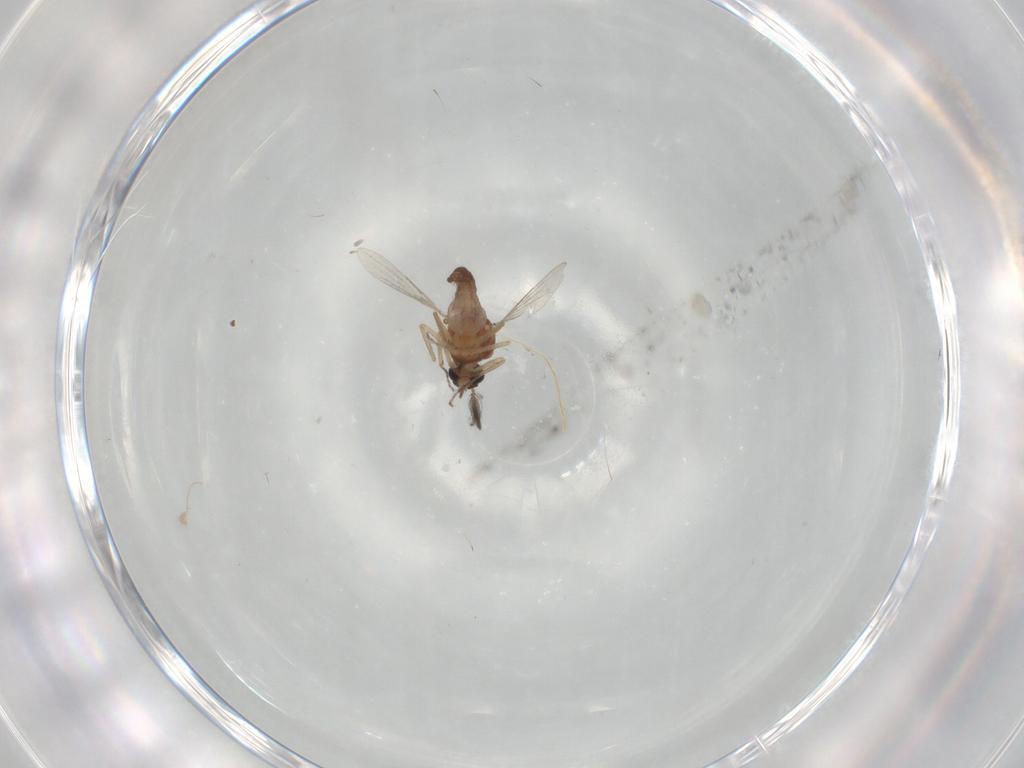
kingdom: Animalia
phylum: Arthropoda
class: Insecta
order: Diptera
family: Ceratopogonidae
